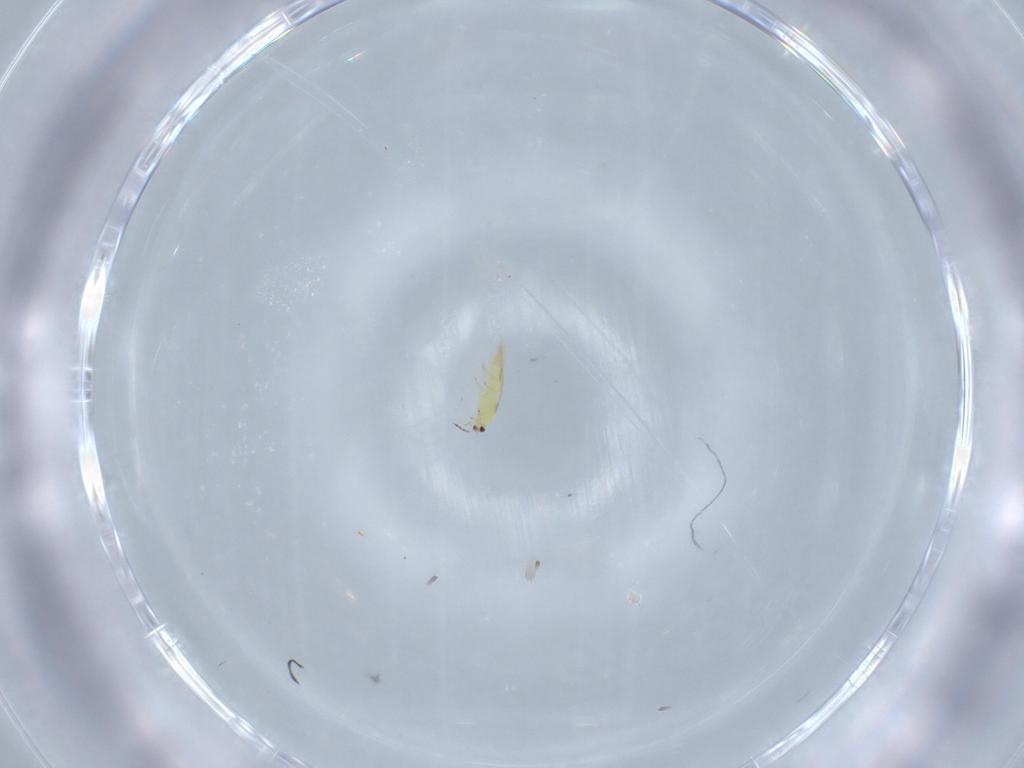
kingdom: Animalia
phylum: Arthropoda
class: Insecta
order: Thysanoptera
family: Thripidae
